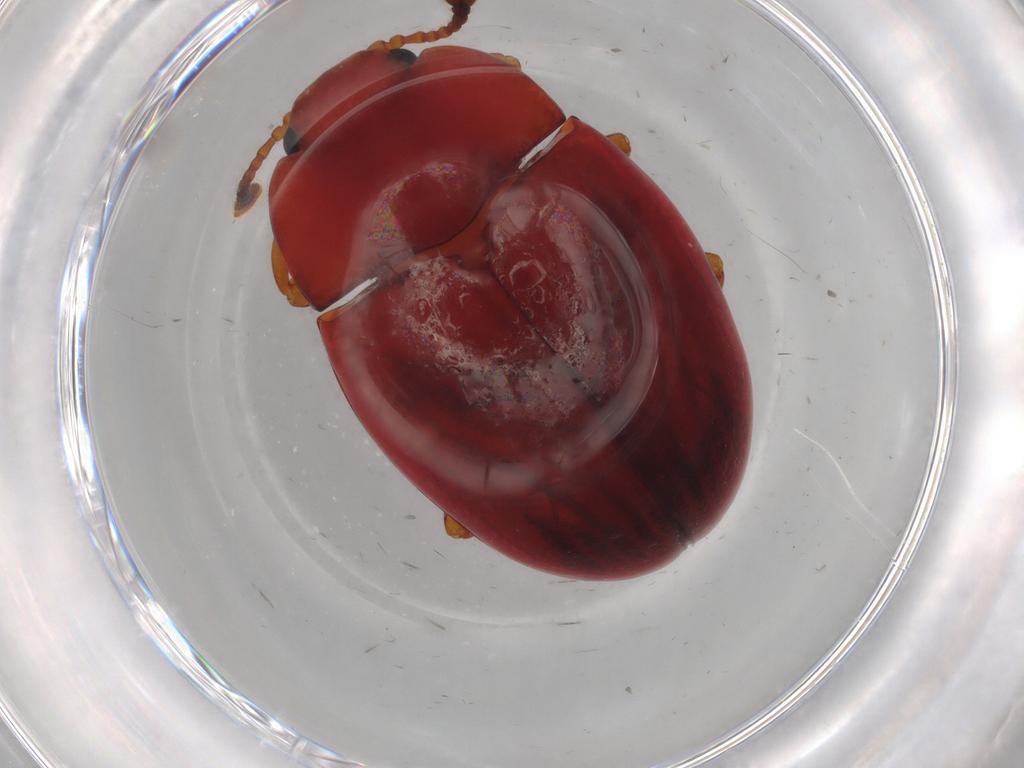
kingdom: Animalia
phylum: Arthropoda
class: Insecta
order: Coleoptera
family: Erotylidae
